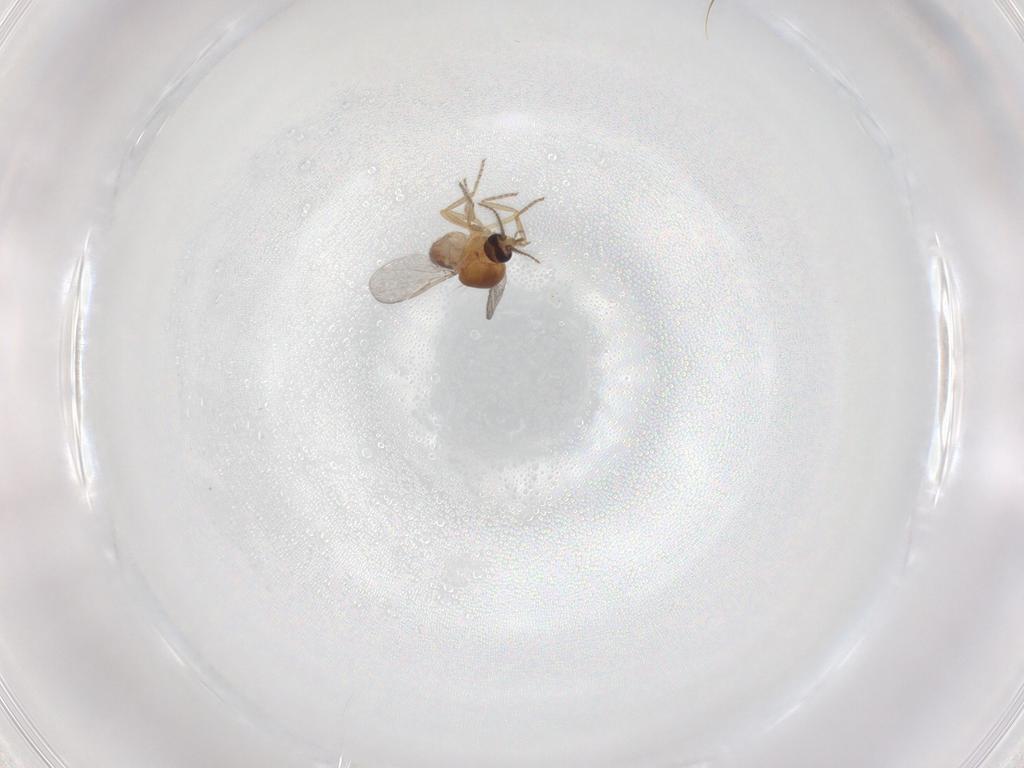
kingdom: Animalia
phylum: Arthropoda
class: Insecta
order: Diptera
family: Ceratopogonidae
